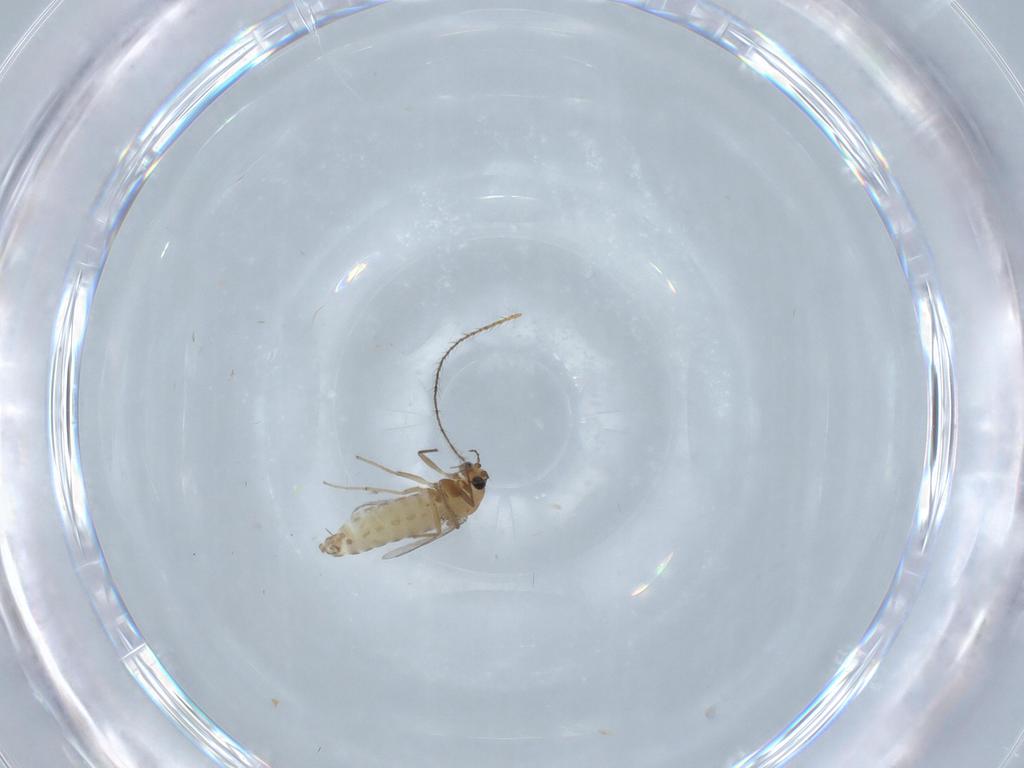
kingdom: Animalia
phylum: Arthropoda
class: Insecta
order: Diptera
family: Chironomidae
